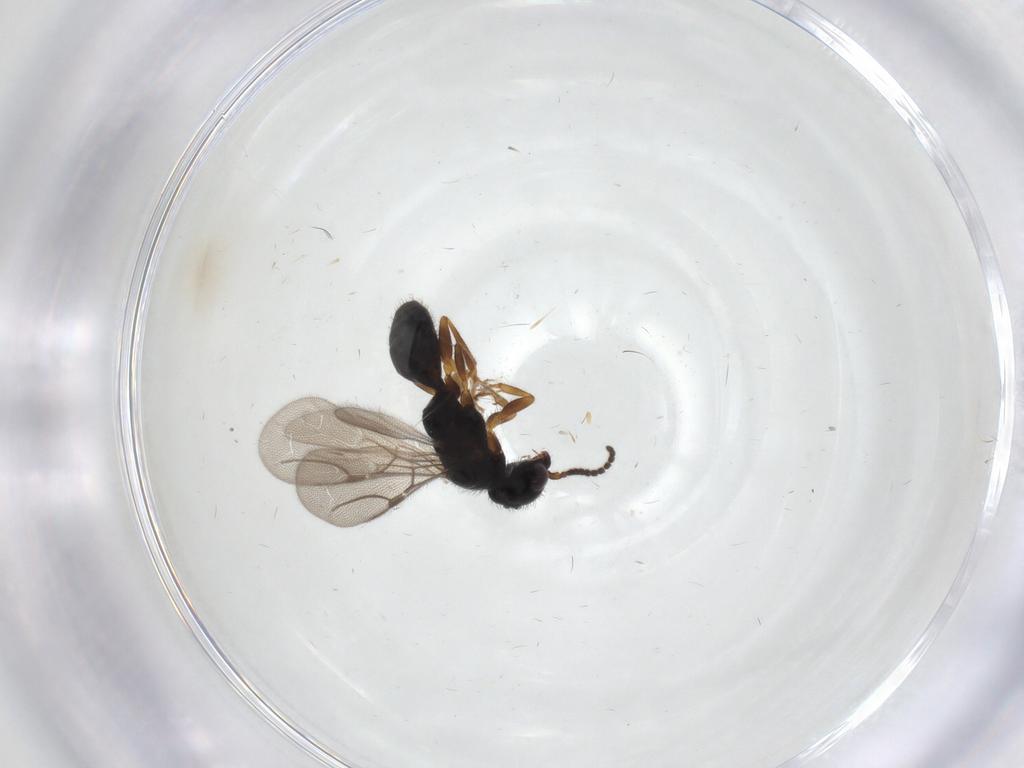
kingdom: Animalia
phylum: Arthropoda
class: Insecta
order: Hymenoptera
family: Bethylidae
